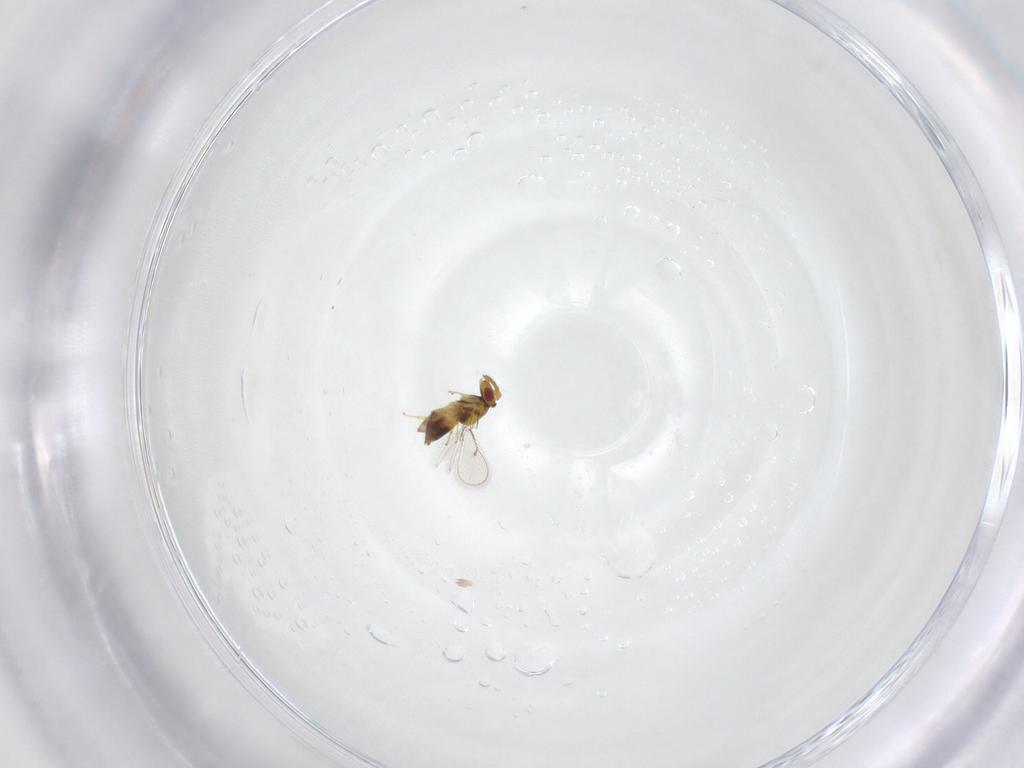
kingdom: Animalia
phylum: Arthropoda
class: Insecta
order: Hymenoptera
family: Eulophidae
